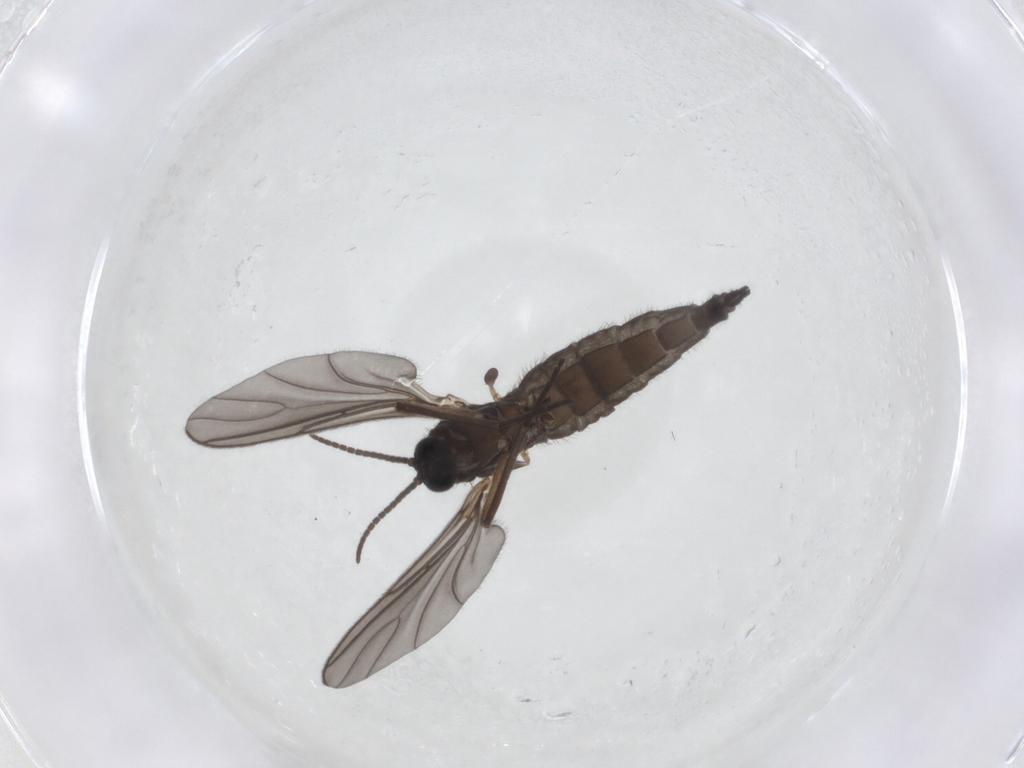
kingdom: Animalia
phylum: Arthropoda
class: Insecta
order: Diptera
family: Sciaridae
